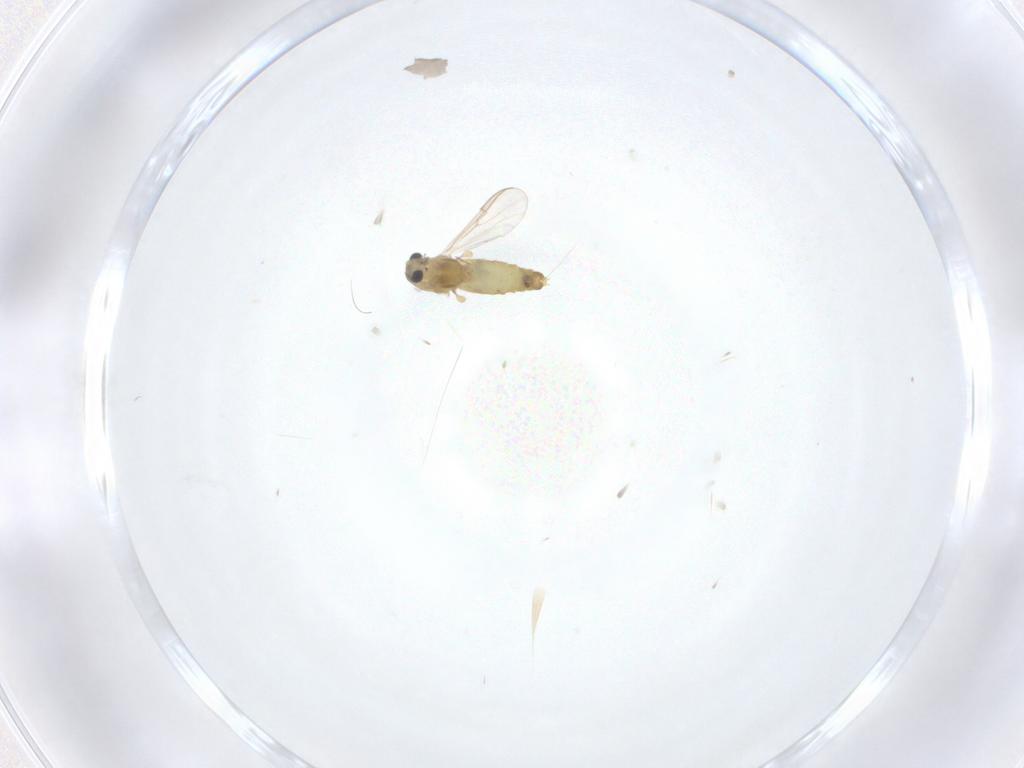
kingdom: Animalia
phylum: Arthropoda
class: Insecta
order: Diptera
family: Chironomidae
